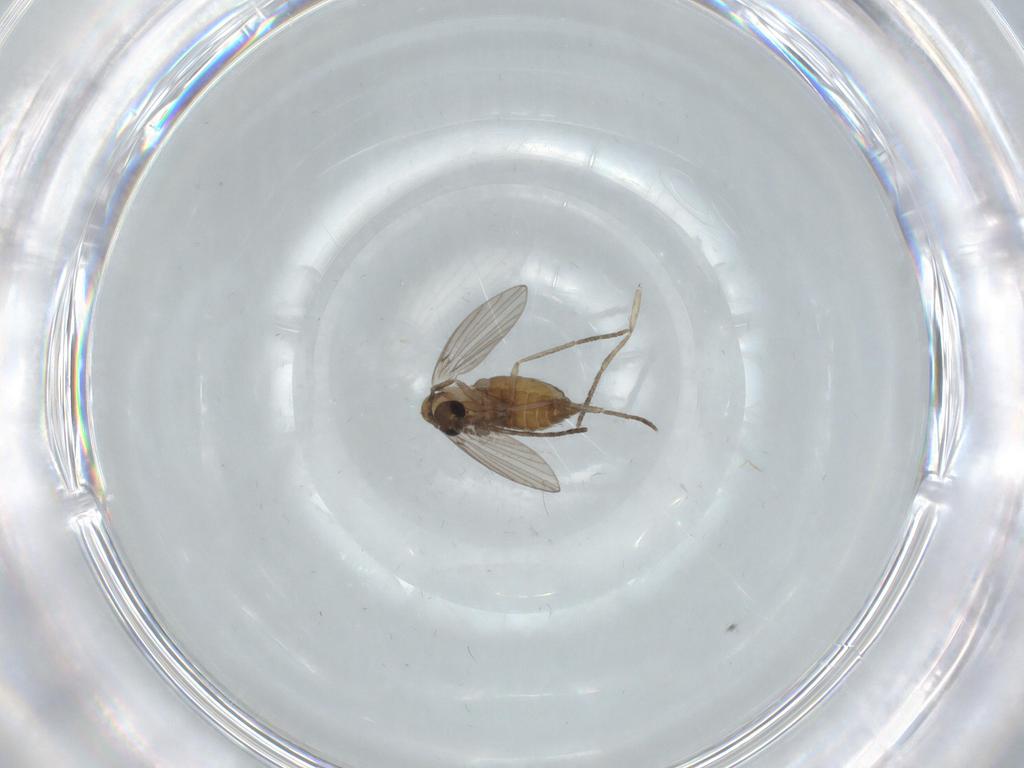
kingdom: Animalia
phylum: Arthropoda
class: Insecta
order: Diptera
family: Psychodidae
